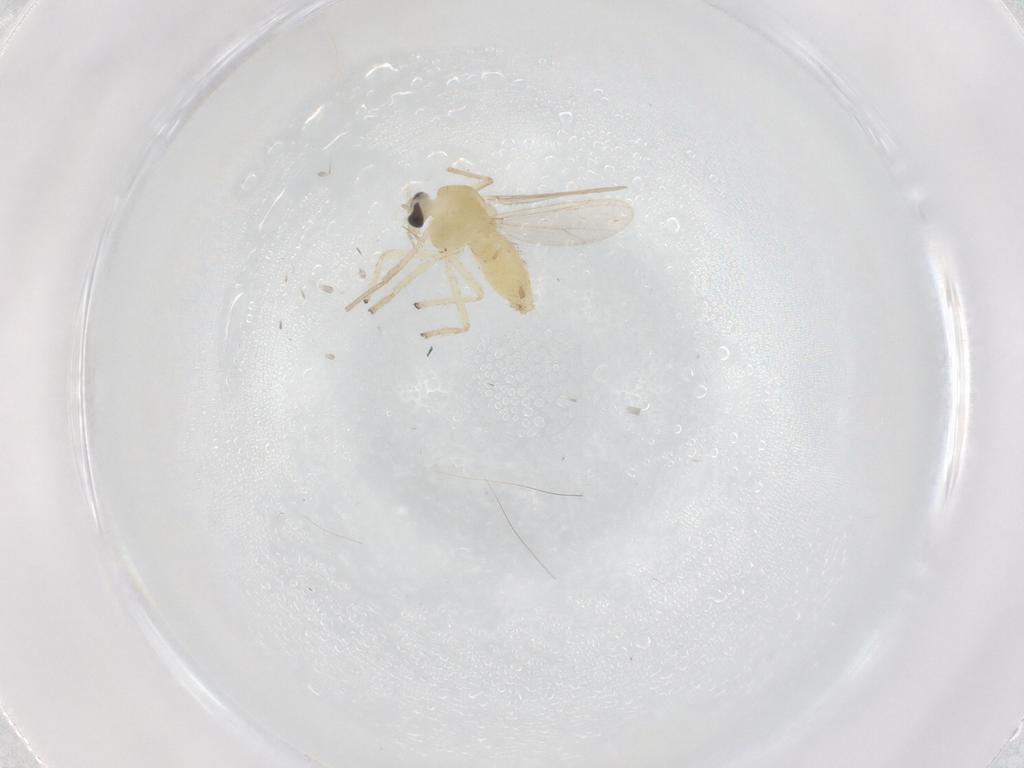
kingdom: Animalia
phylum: Arthropoda
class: Insecta
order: Diptera
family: Chironomidae
